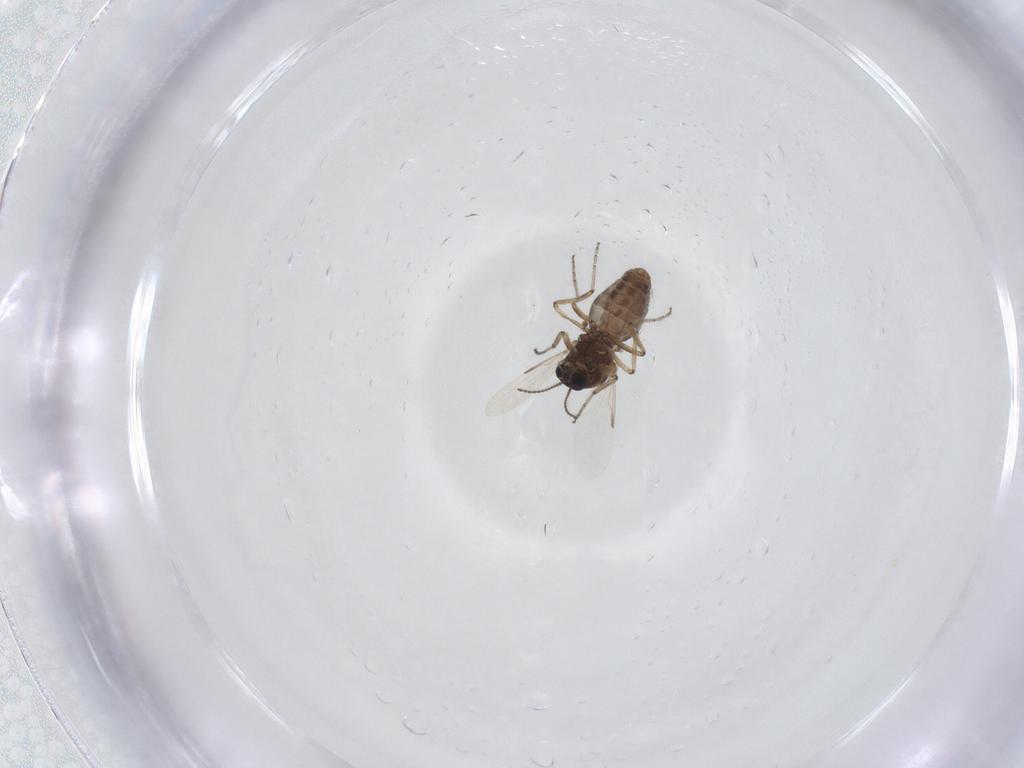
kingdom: Animalia
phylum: Arthropoda
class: Insecta
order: Diptera
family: Ceratopogonidae
